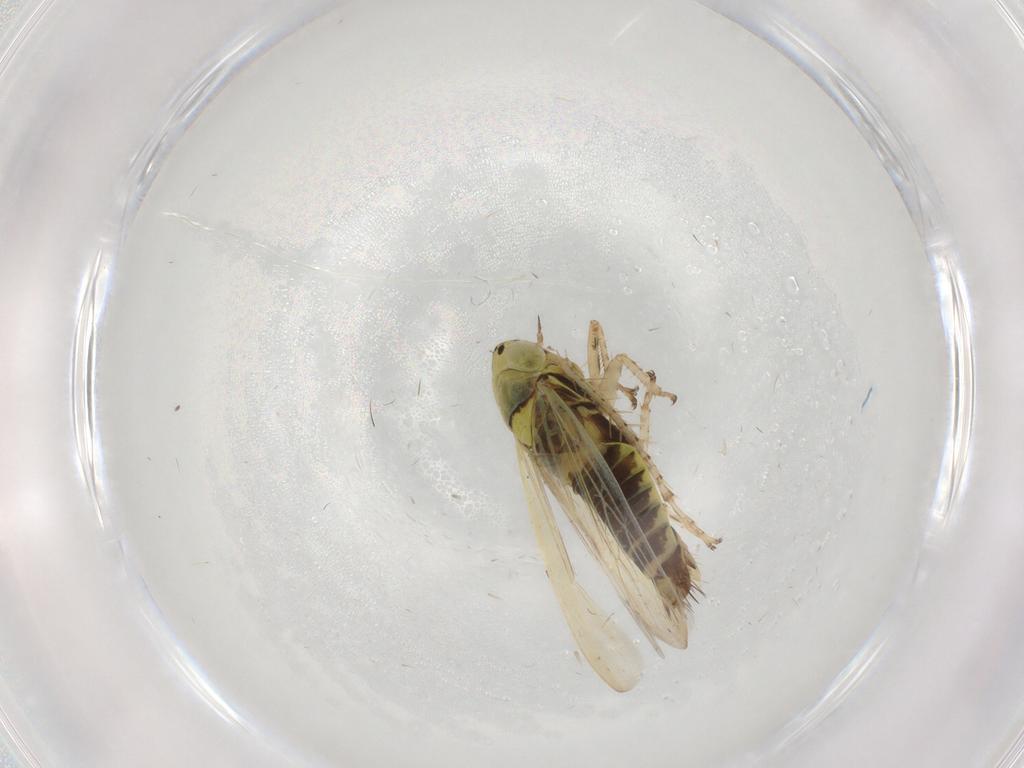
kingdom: Animalia
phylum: Arthropoda
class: Insecta
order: Hemiptera
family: Cicadellidae
